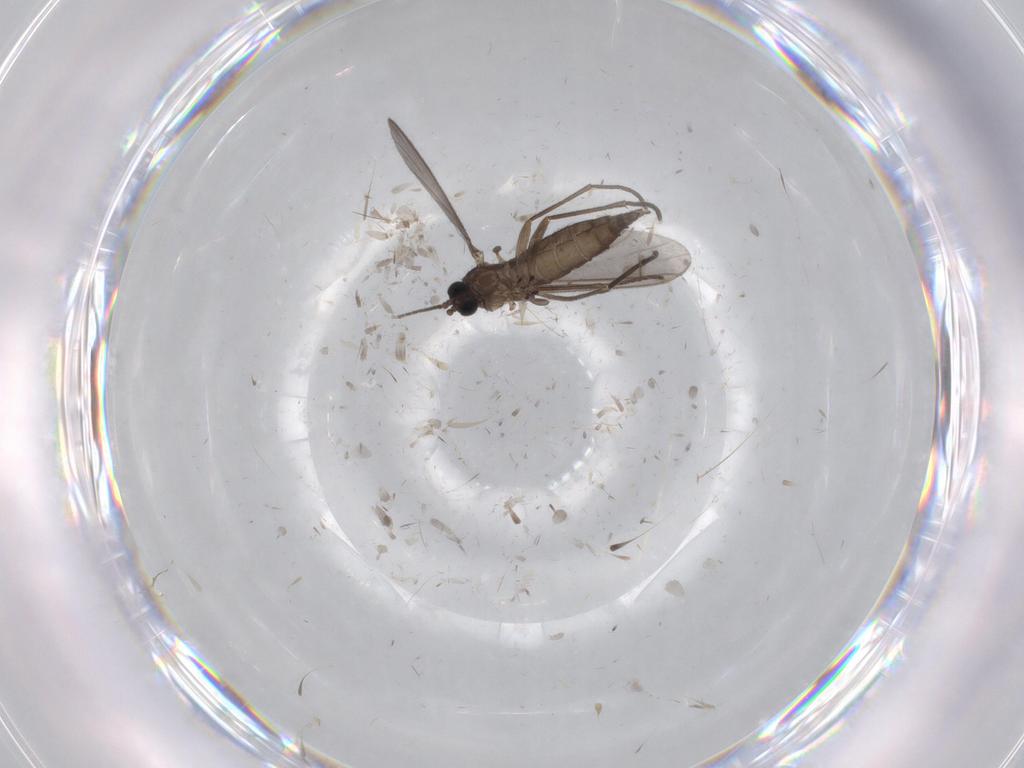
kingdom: Animalia
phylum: Arthropoda
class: Insecta
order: Diptera
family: Sciaridae
